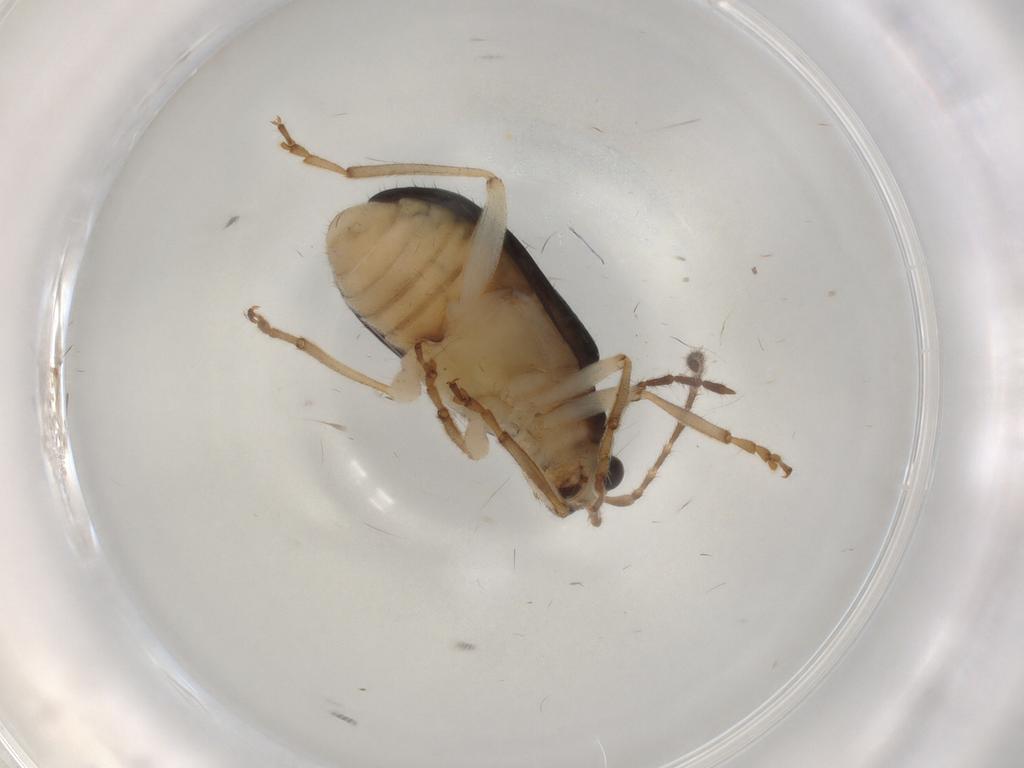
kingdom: Animalia
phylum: Arthropoda
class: Insecta
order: Coleoptera
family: Chrysomelidae
